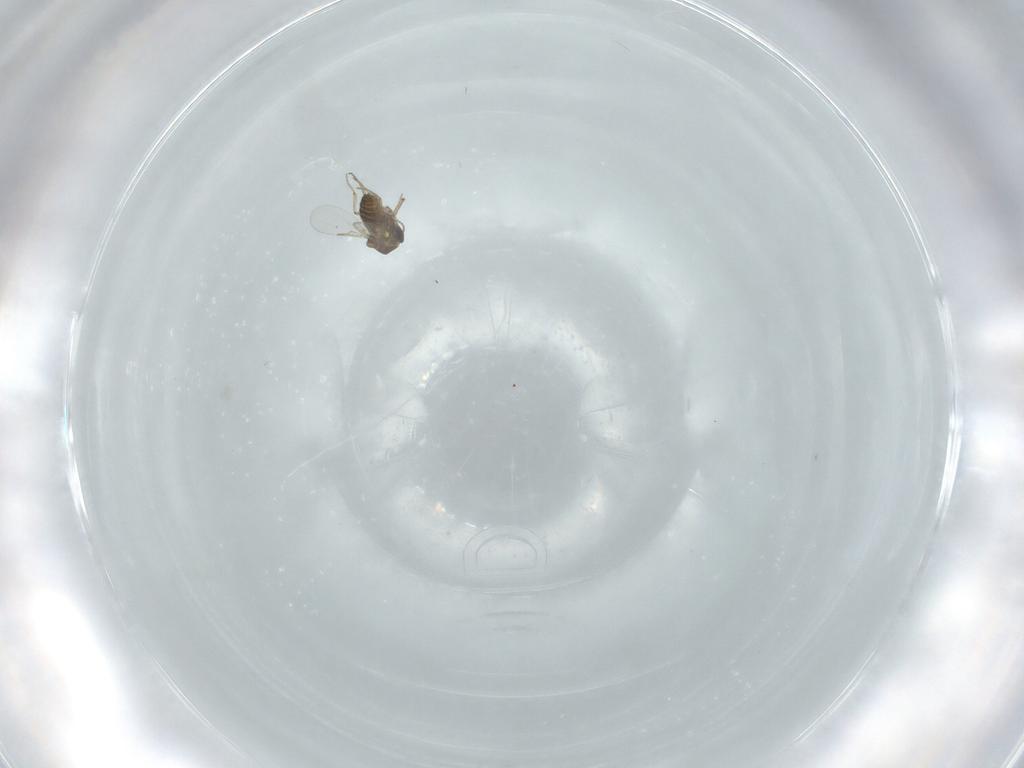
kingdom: Animalia
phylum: Arthropoda
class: Insecta
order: Diptera
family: Ceratopogonidae
